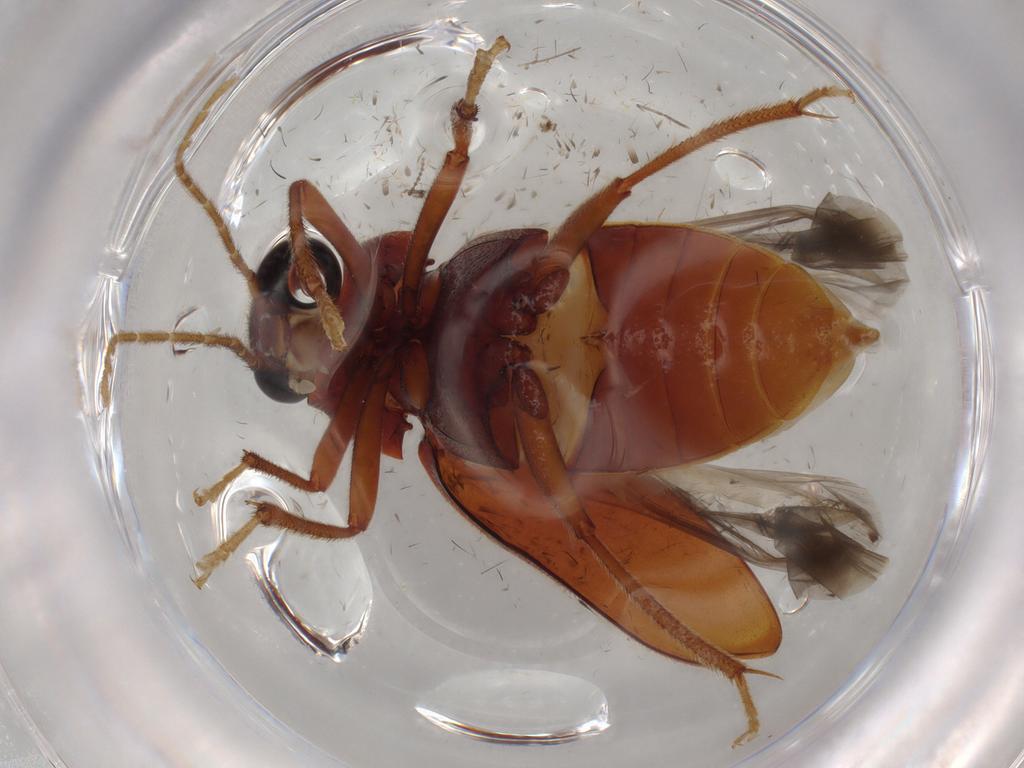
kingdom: Animalia
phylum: Arthropoda
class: Insecta
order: Coleoptera
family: Ptilodactylidae
